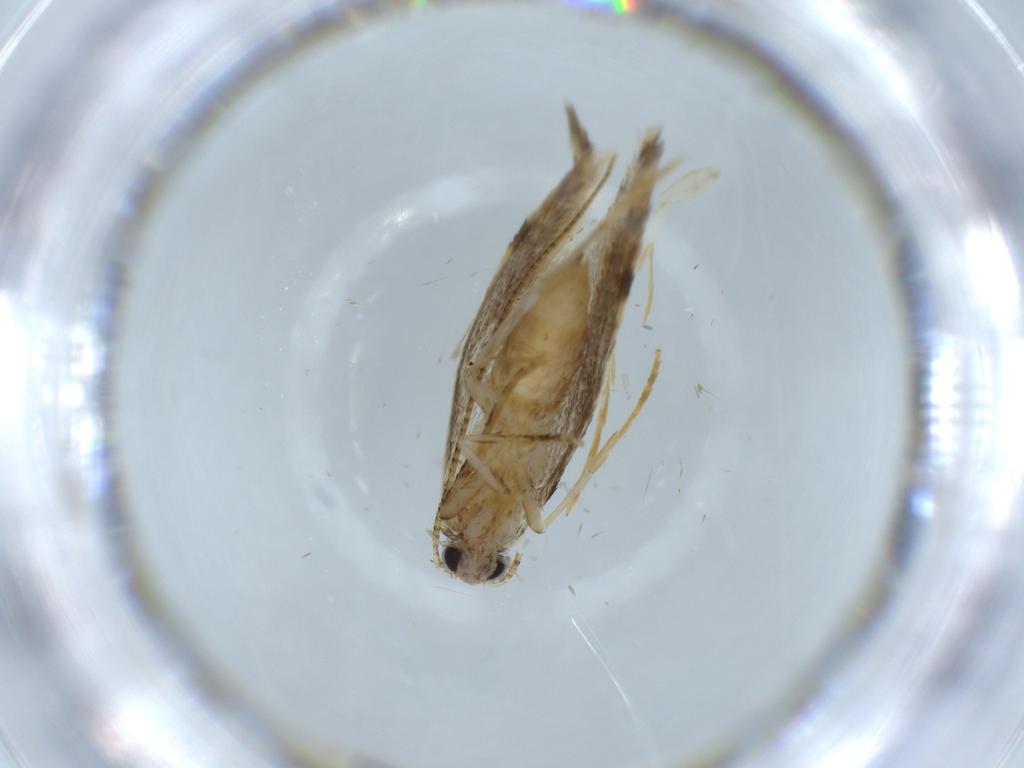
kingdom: Animalia
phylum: Arthropoda
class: Insecta
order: Lepidoptera
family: Tineidae
